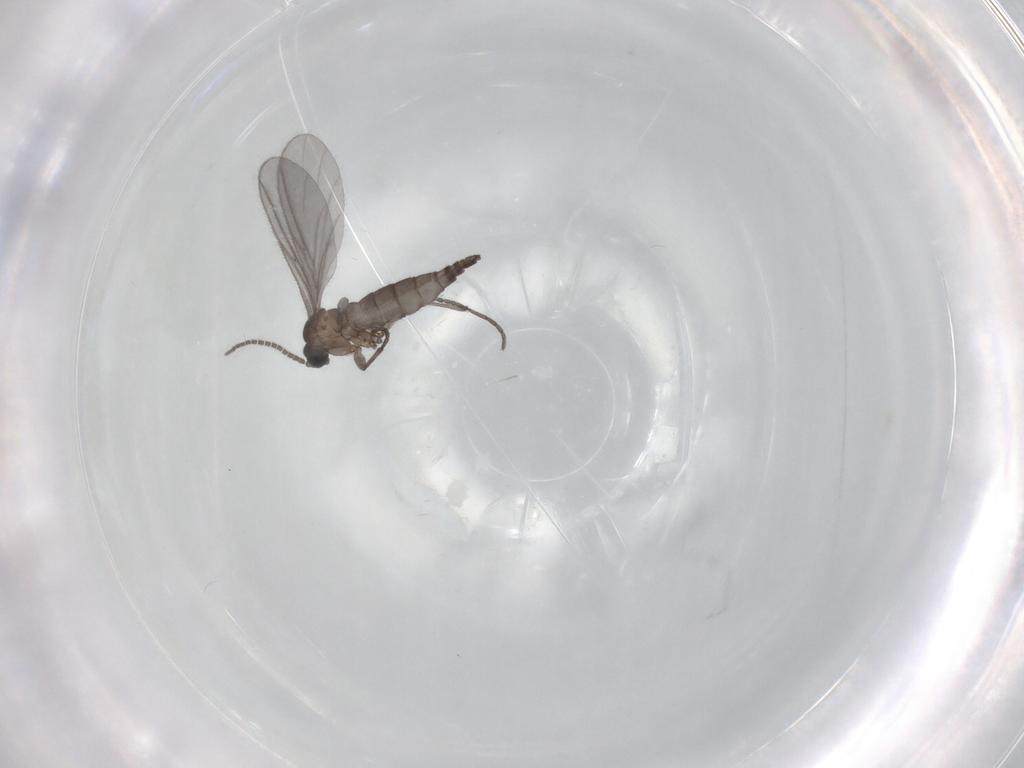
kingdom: Animalia
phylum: Arthropoda
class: Insecta
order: Diptera
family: Sciaridae
